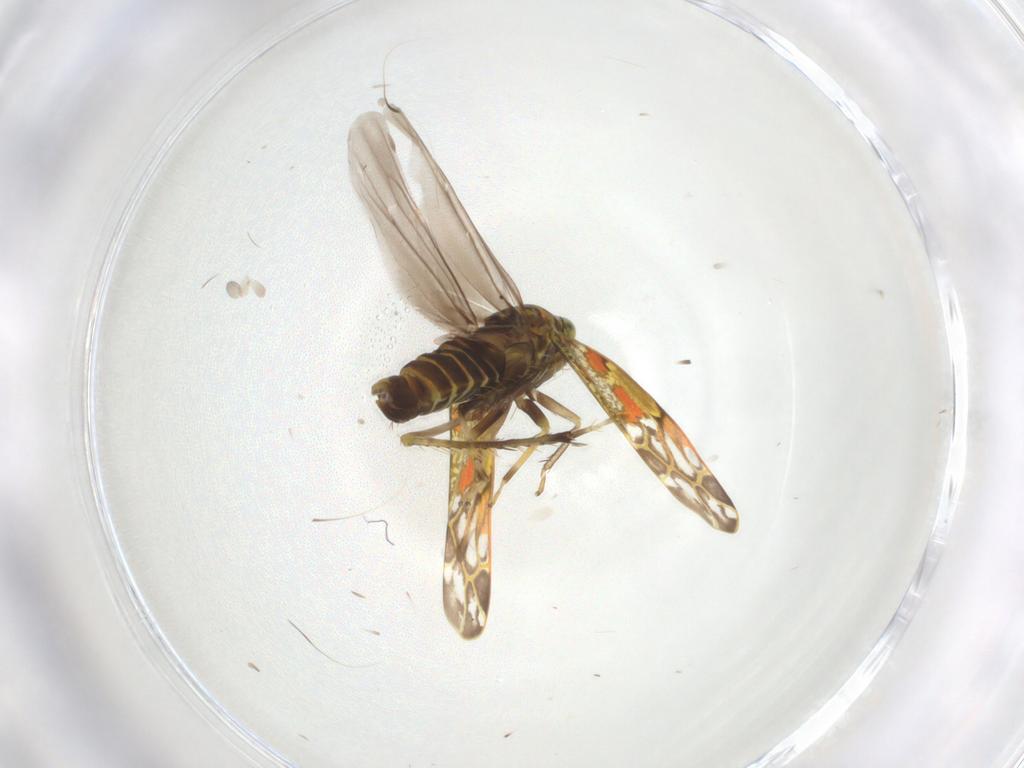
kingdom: Animalia
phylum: Arthropoda
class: Insecta
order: Hemiptera
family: Cicadellidae
